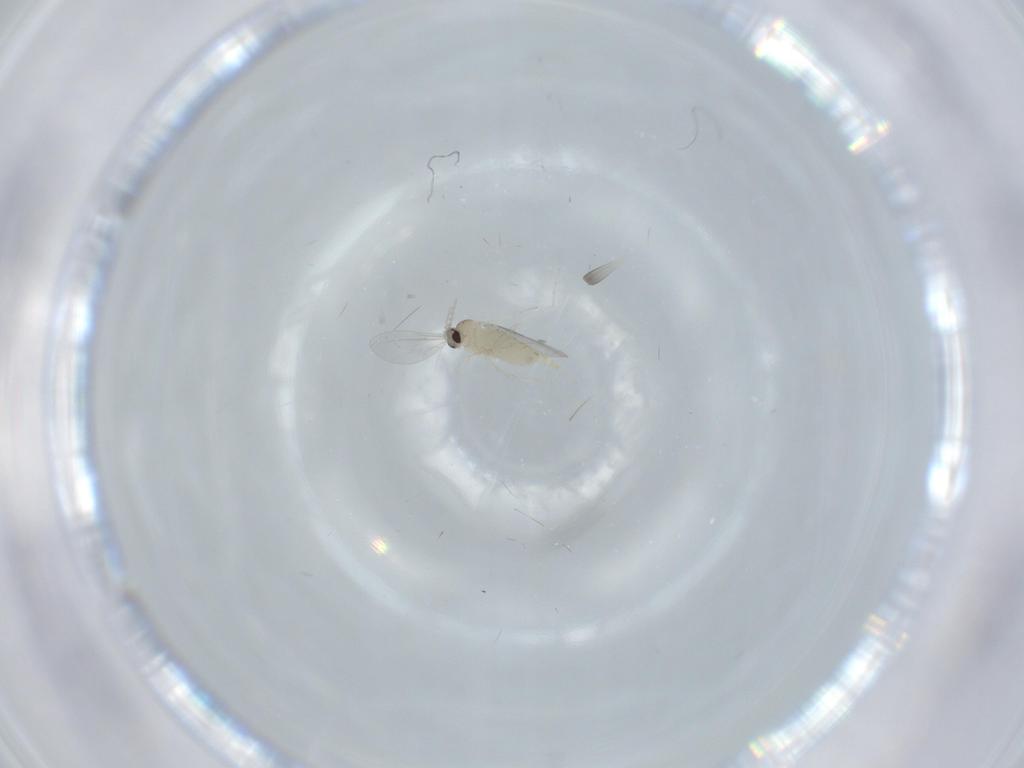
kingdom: Animalia
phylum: Arthropoda
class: Insecta
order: Diptera
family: Cecidomyiidae
